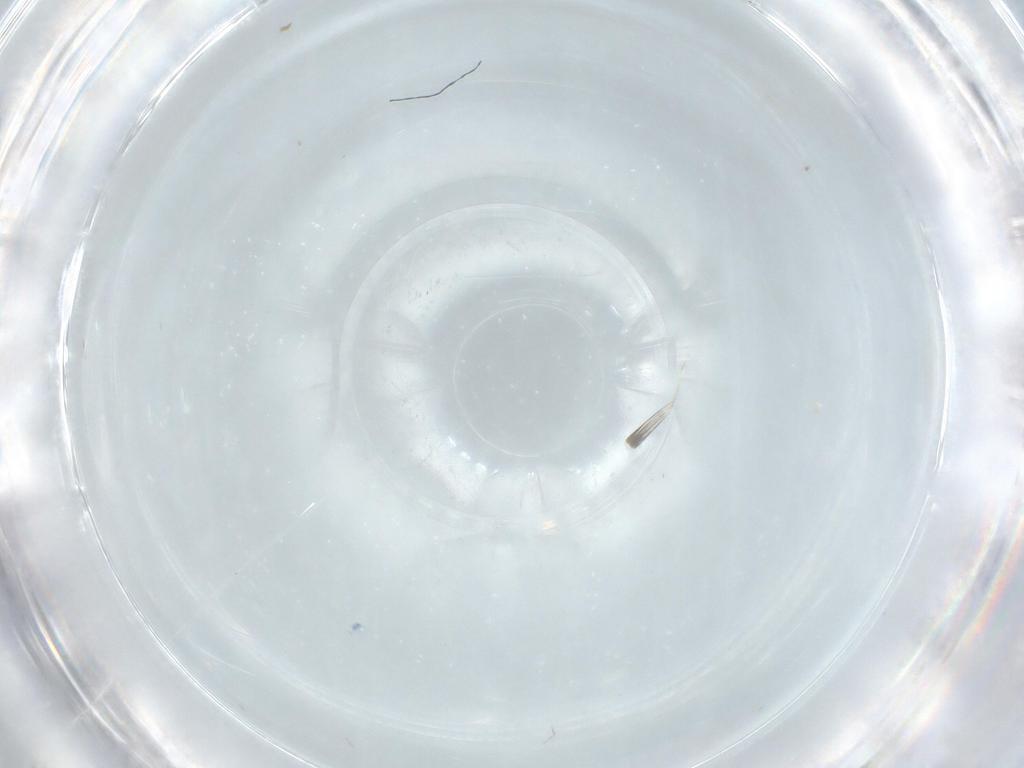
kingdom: Animalia
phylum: Arthropoda
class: Insecta
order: Diptera
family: Cecidomyiidae
